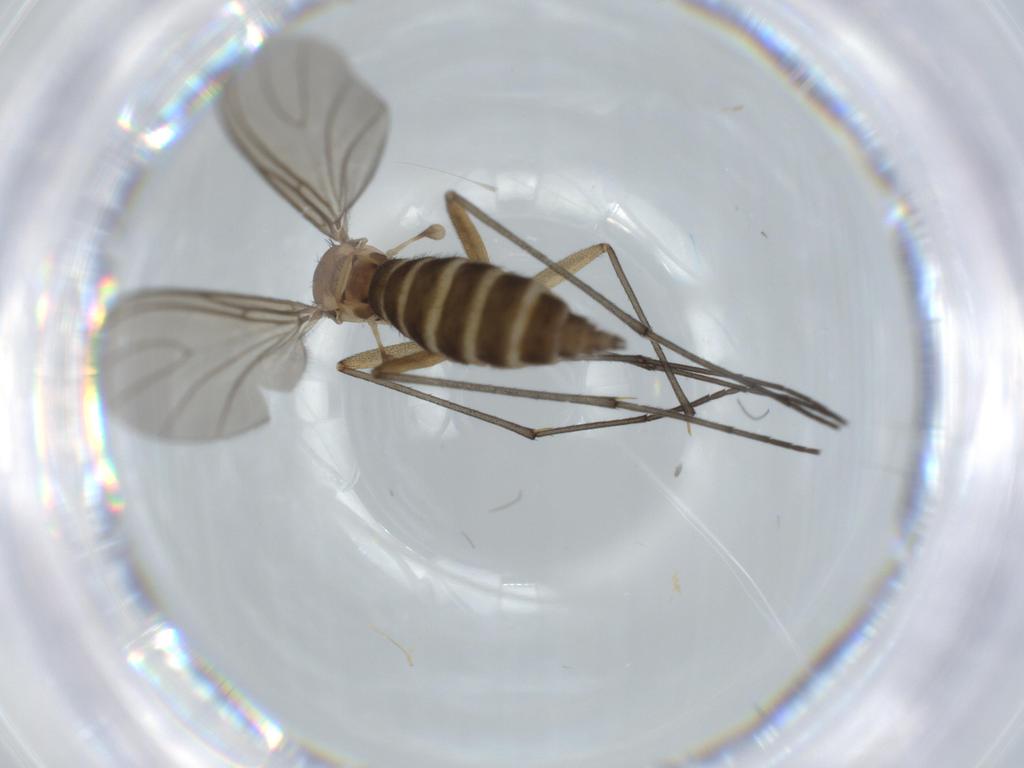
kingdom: Animalia
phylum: Arthropoda
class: Insecta
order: Diptera
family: Sciaridae
